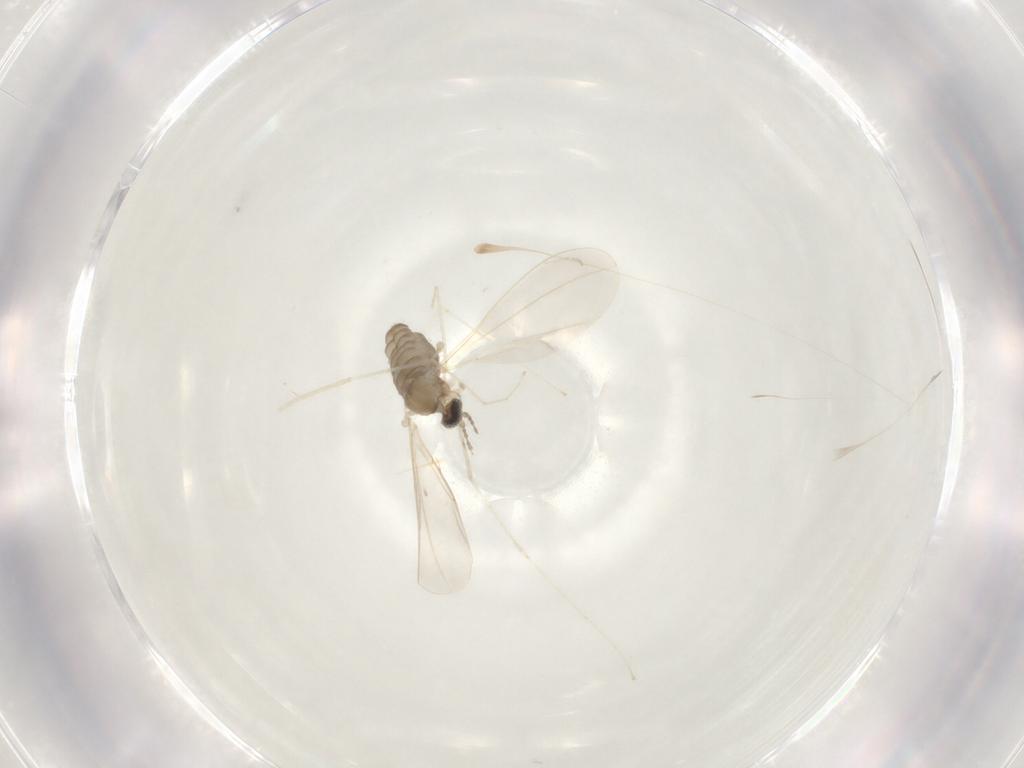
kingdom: Animalia
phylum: Arthropoda
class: Insecta
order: Diptera
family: Cecidomyiidae
